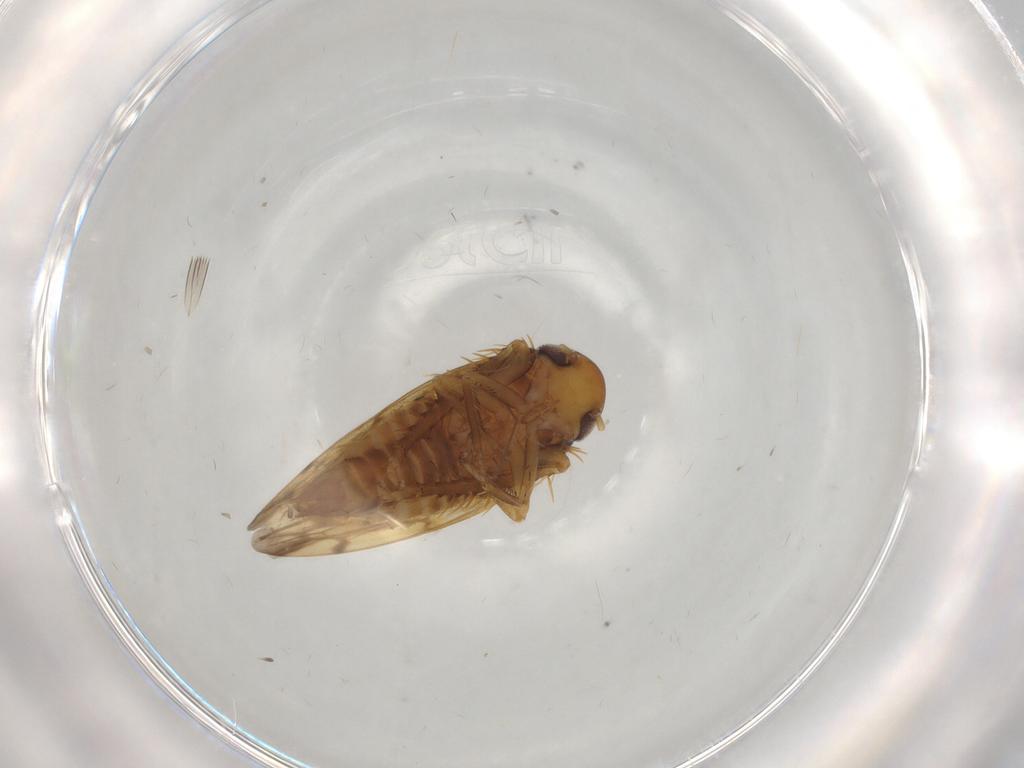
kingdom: Animalia
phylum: Arthropoda
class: Insecta
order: Hemiptera
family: Cicadellidae
